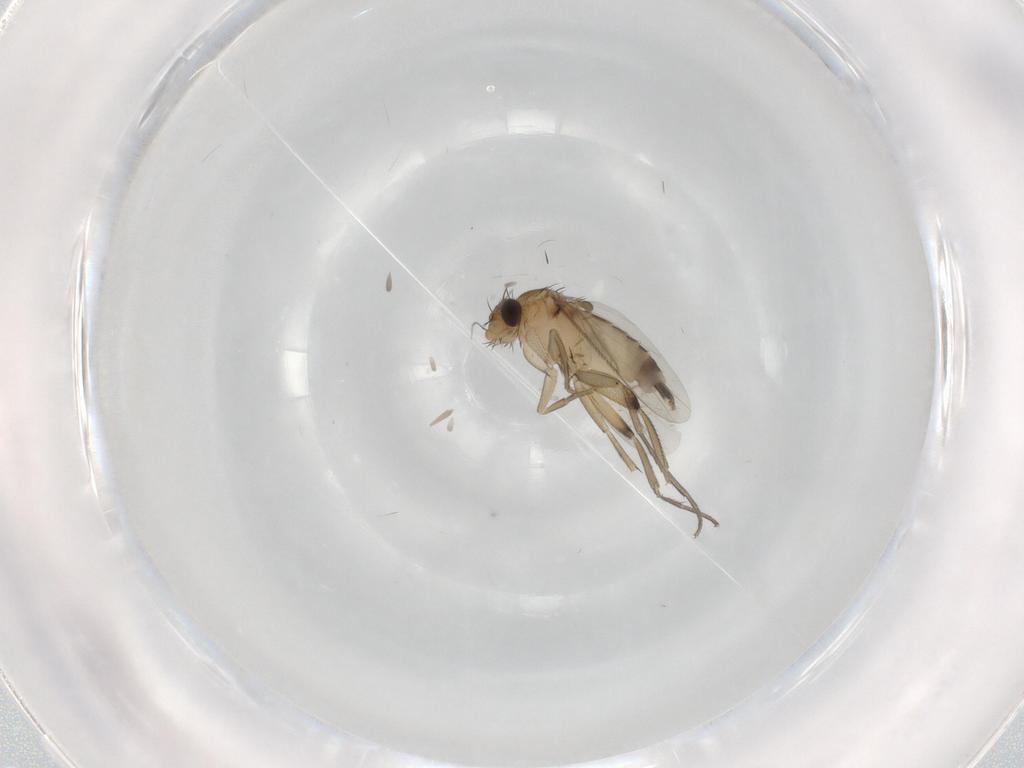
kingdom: Animalia
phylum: Arthropoda
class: Insecta
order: Diptera
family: Phoridae
